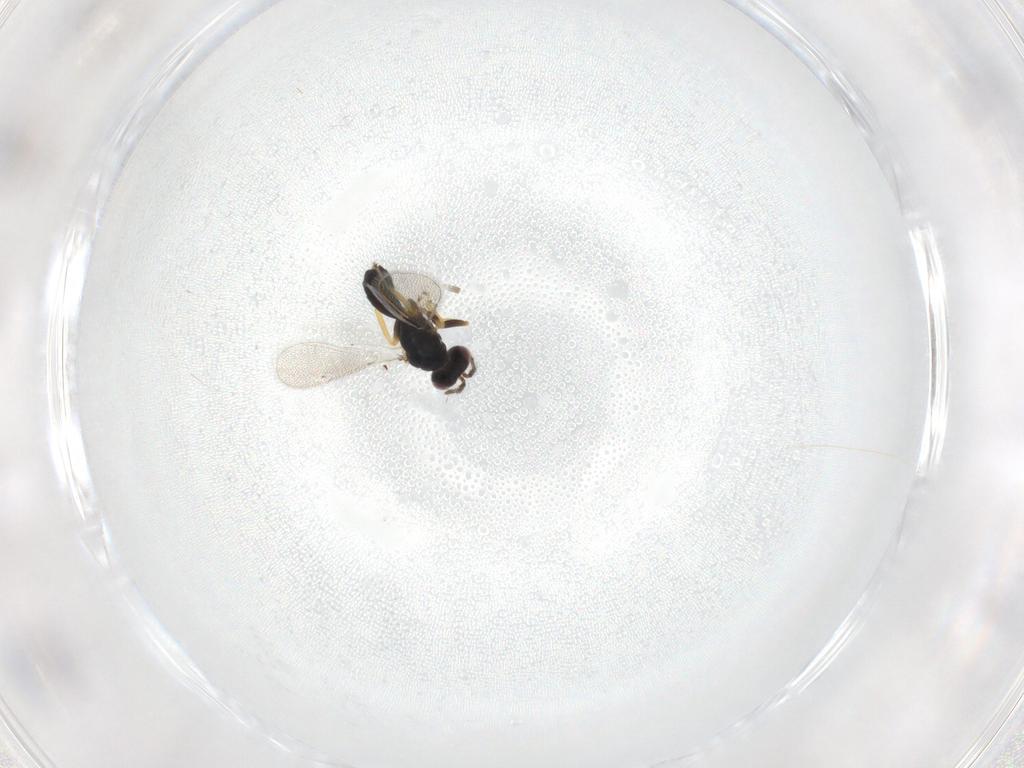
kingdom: Animalia
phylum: Arthropoda
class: Insecta
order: Hymenoptera
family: Eulophidae
